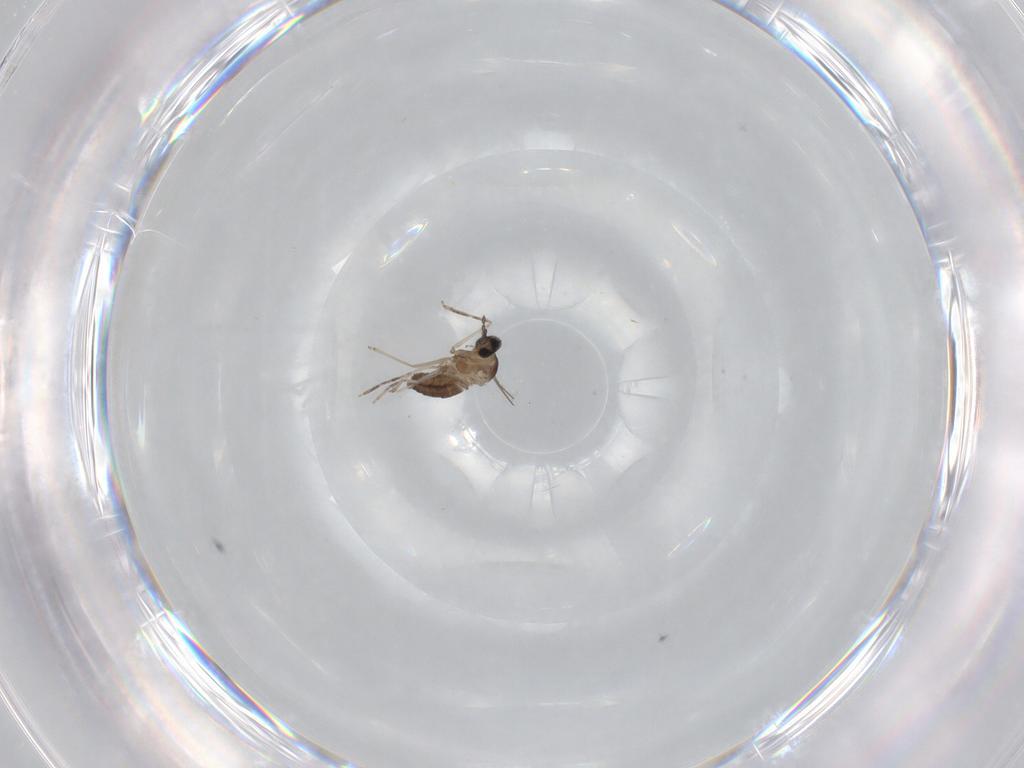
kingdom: Animalia
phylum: Arthropoda
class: Insecta
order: Diptera
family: Cecidomyiidae
